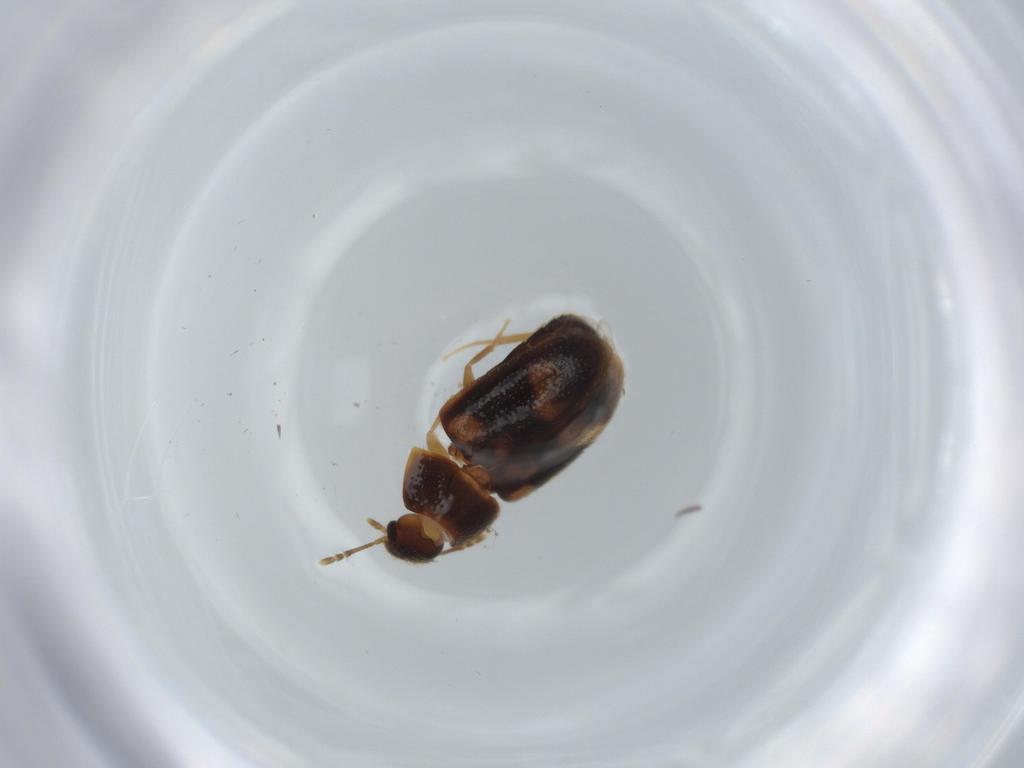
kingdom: Animalia
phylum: Arthropoda
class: Insecta
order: Coleoptera
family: Mycetophagidae
